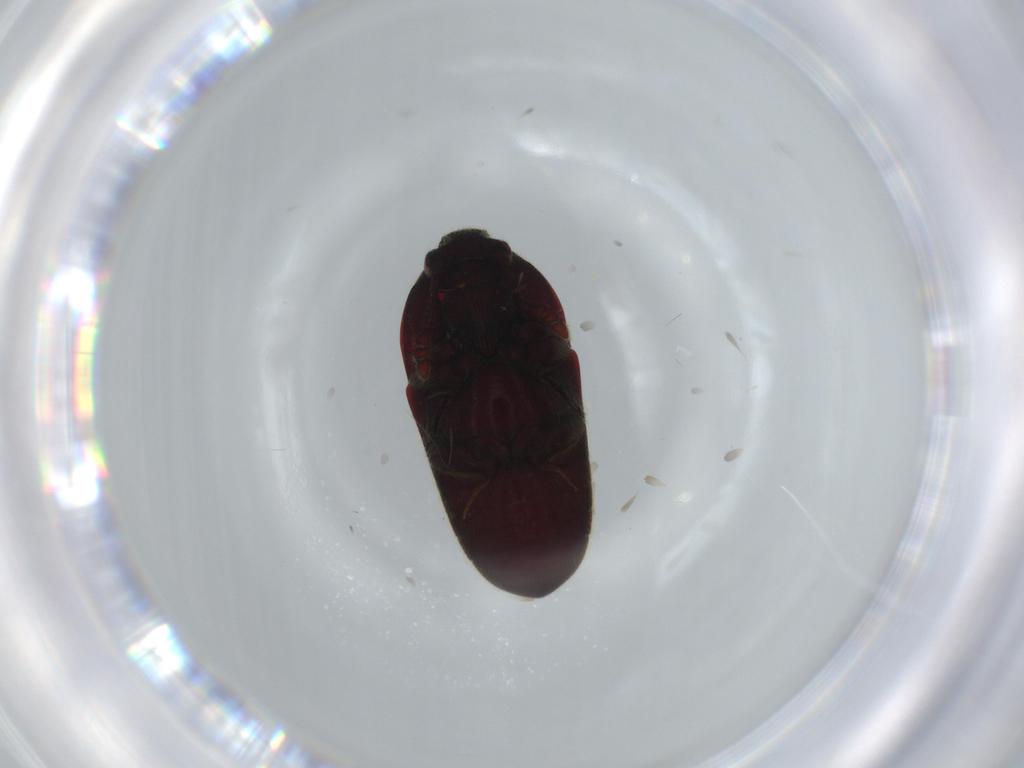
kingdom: Animalia
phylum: Arthropoda
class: Insecta
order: Coleoptera
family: Throscidae
